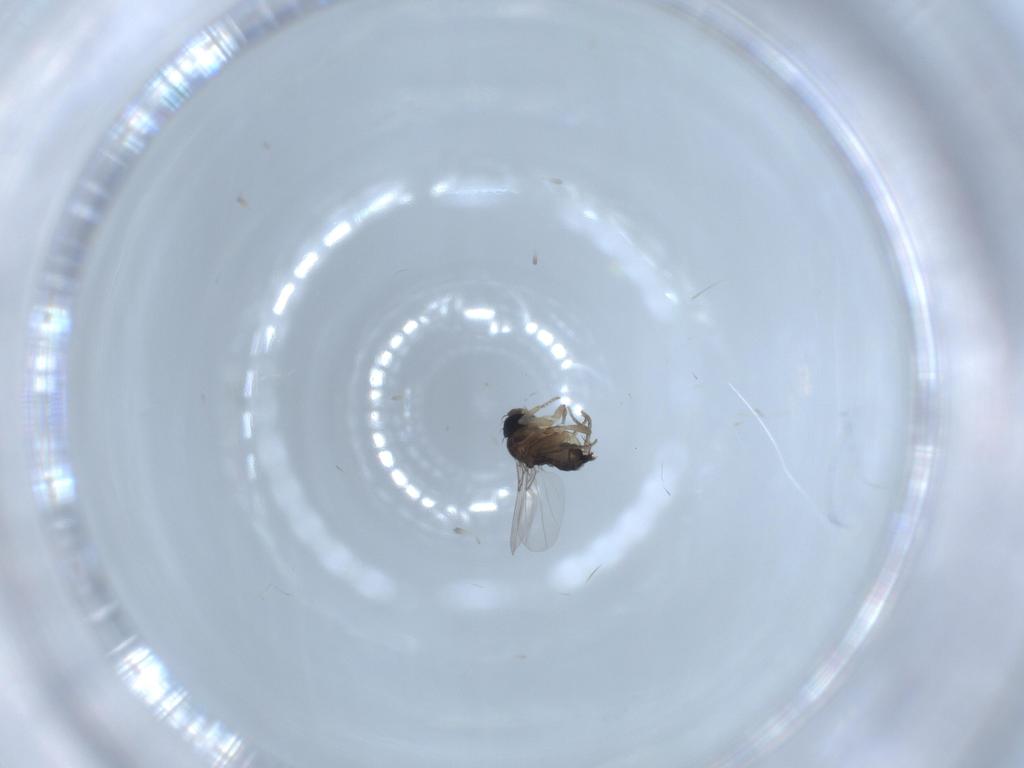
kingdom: Animalia
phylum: Arthropoda
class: Insecta
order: Diptera
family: Phoridae
